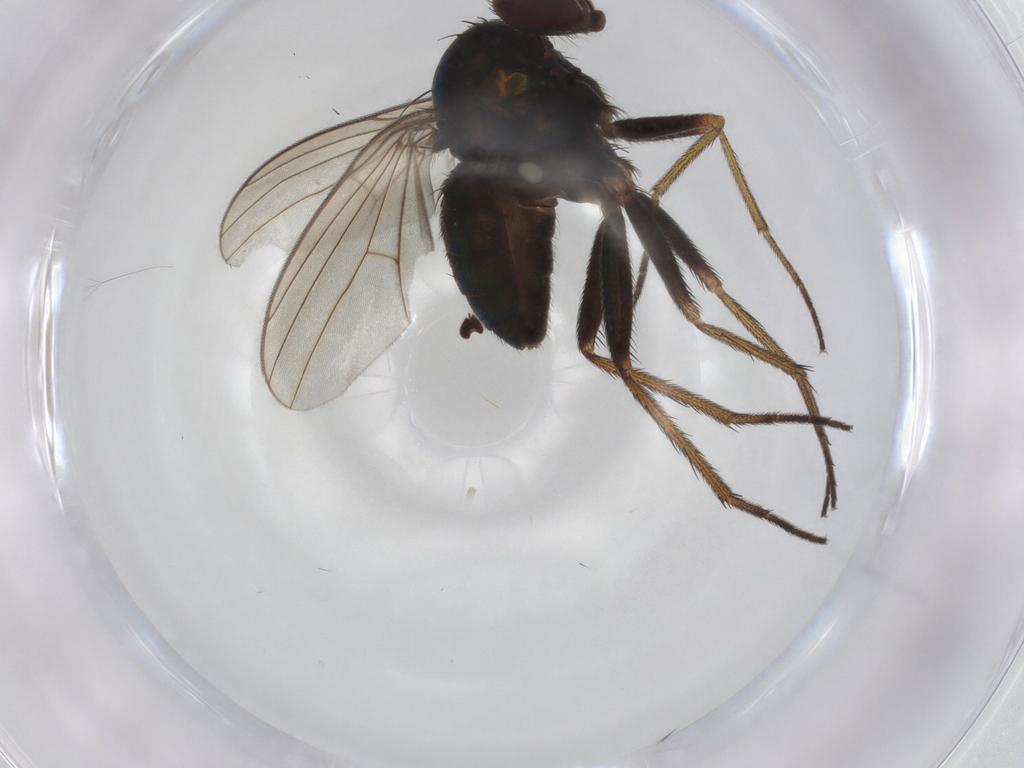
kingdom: Animalia
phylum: Arthropoda
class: Insecta
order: Diptera
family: Dolichopodidae
